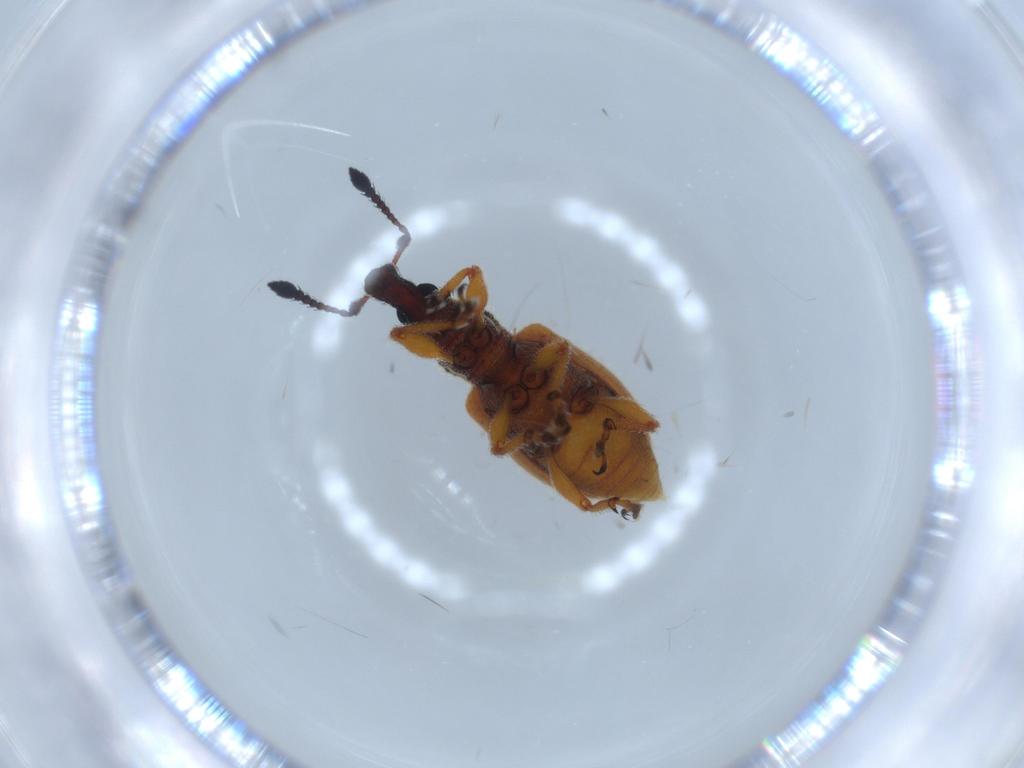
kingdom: Animalia
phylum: Arthropoda
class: Insecta
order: Coleoptera
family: Curculionidae
